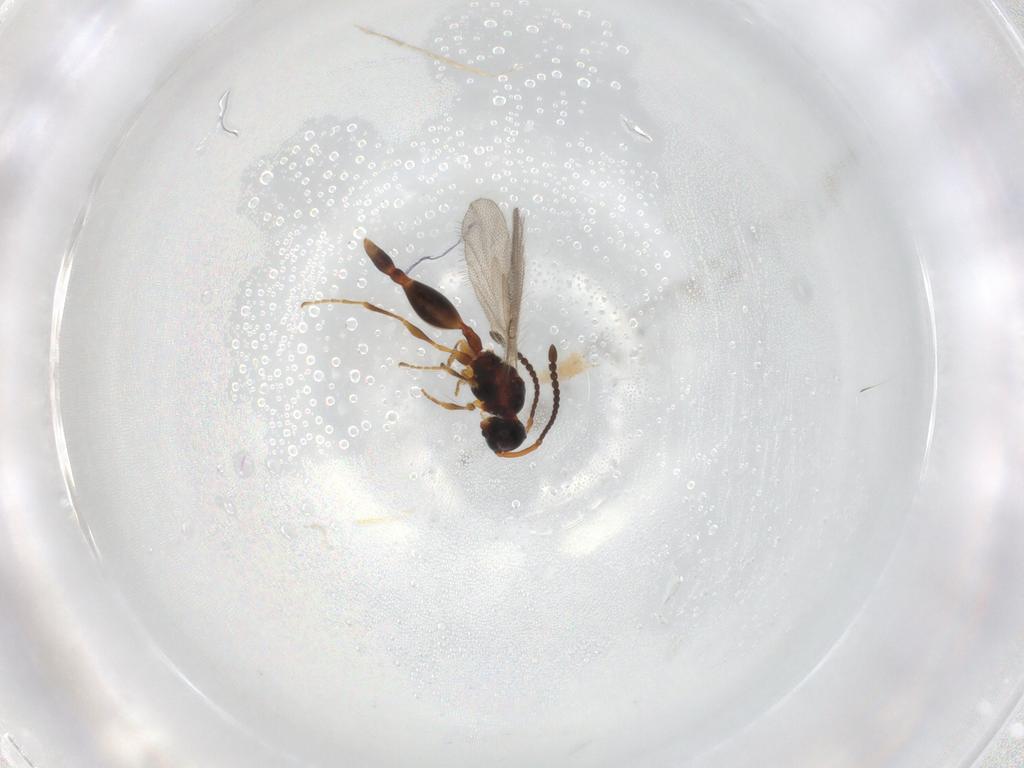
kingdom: Animalia
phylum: Arthropoda
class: Insecta
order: Hymenoptera
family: Diapriidae
